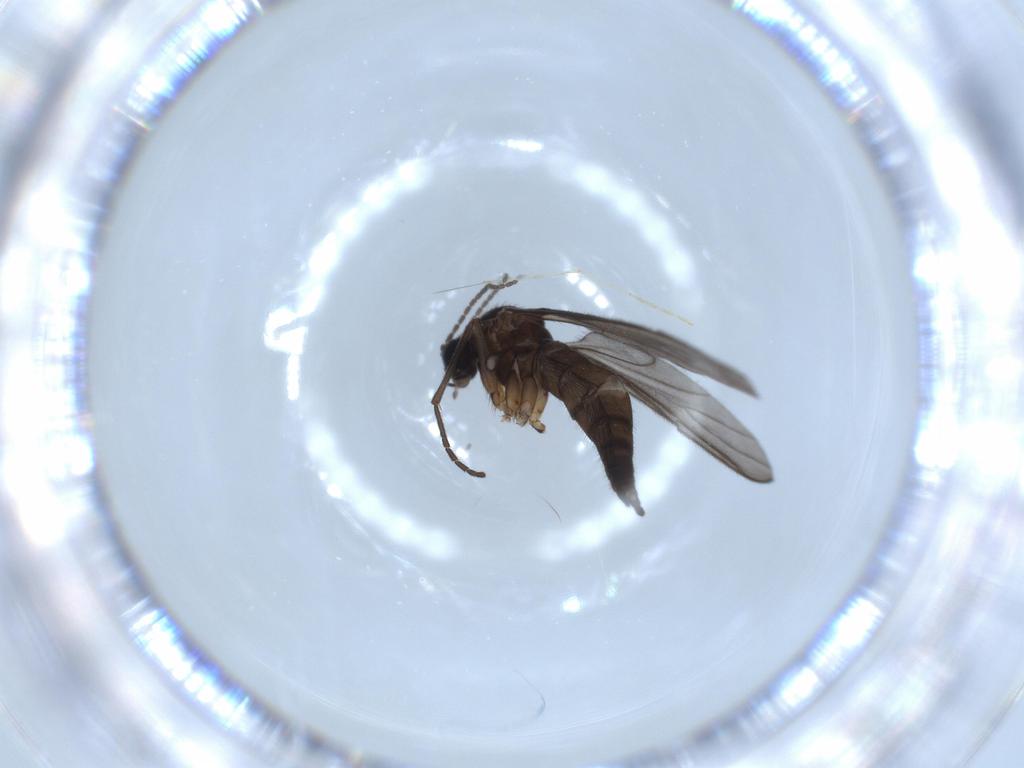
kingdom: Animalia
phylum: Arthropoda
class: Insecta
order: Diptera
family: Sciaridae
